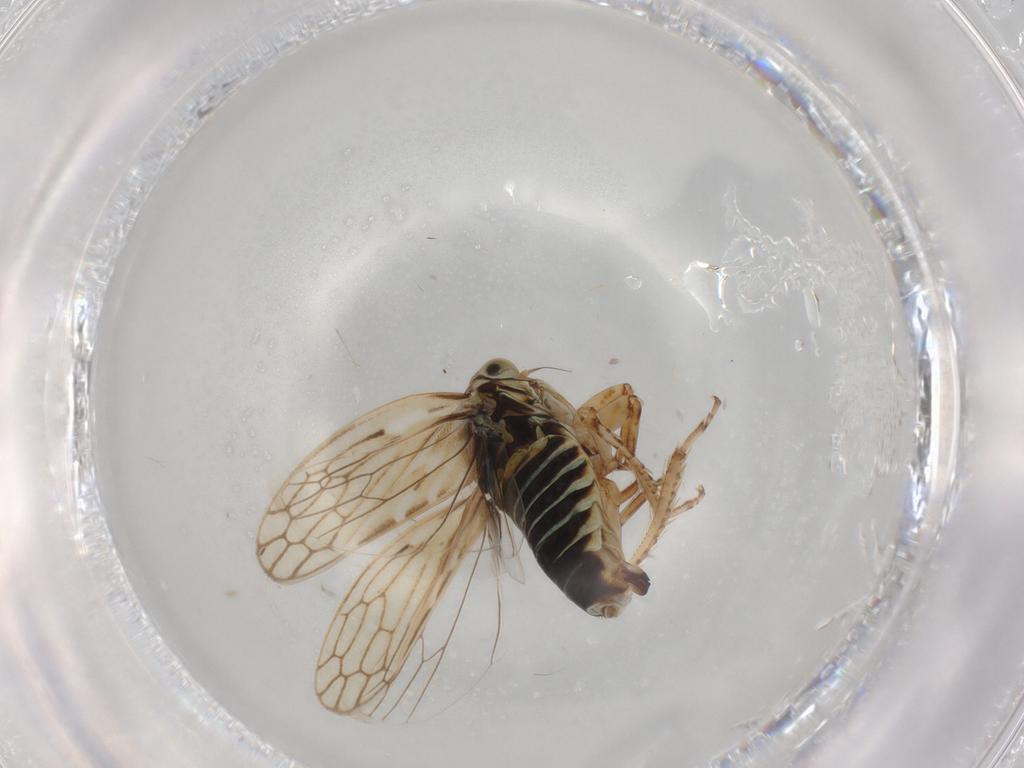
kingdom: Animalia
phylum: Arthropoda
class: Insecta
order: Hemiptera
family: Cicadellidae
